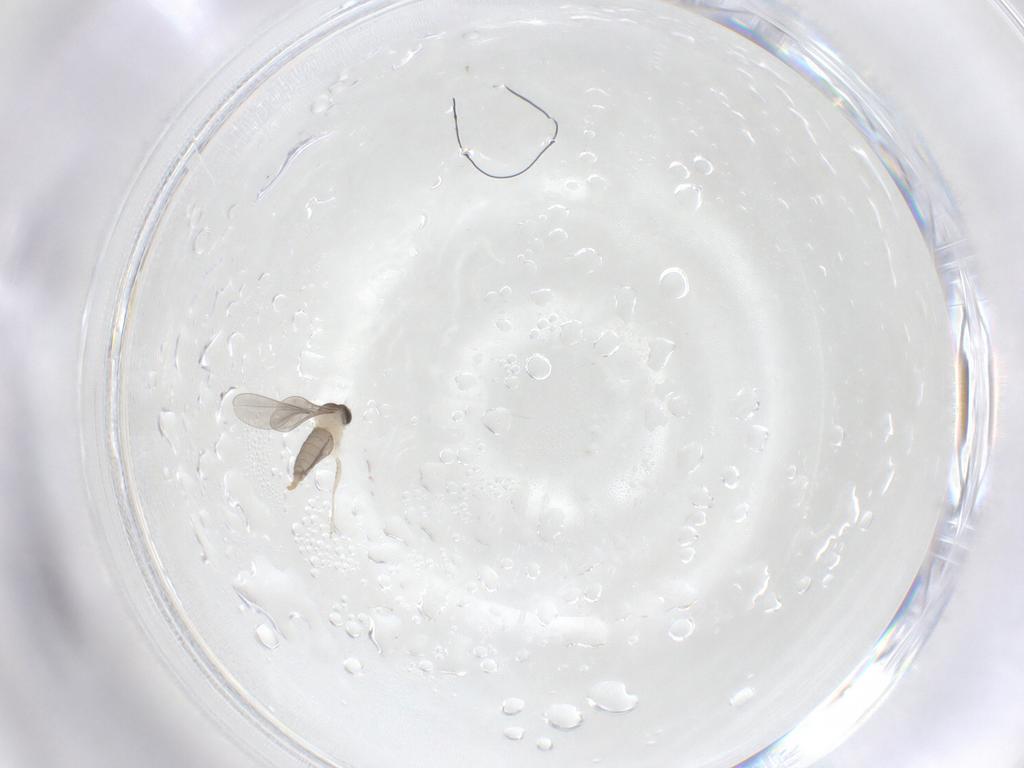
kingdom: Animalia
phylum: Arthropoda
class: Insecta
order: Diptera
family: Cecidomyiidae
